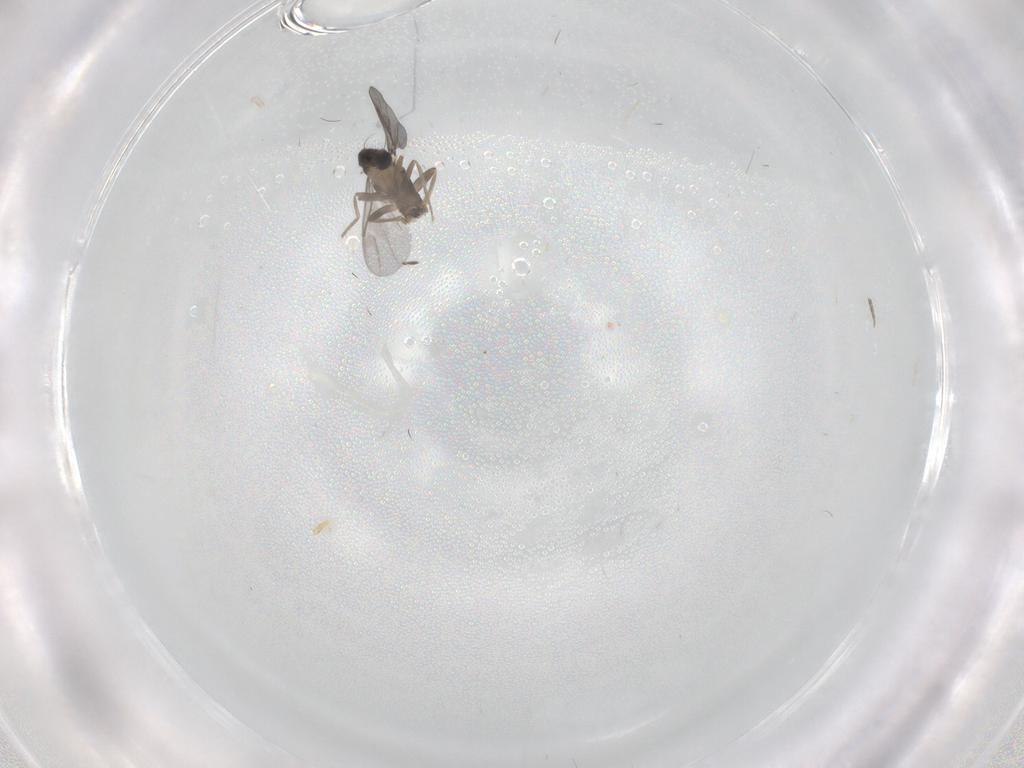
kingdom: Animalia
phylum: Arthropoda
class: Insecta
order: Diptera
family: Cecidomyiidae
